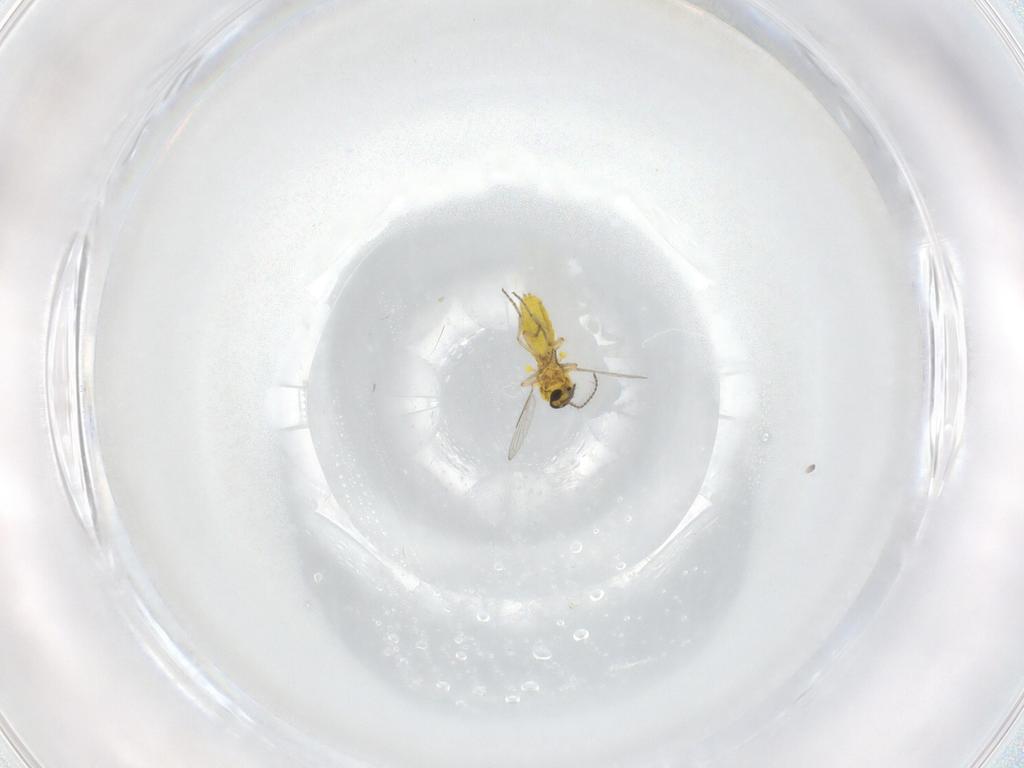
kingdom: Animalia
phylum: Arthropoda
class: Insecta
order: Diptera
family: Ceratopogonidae
